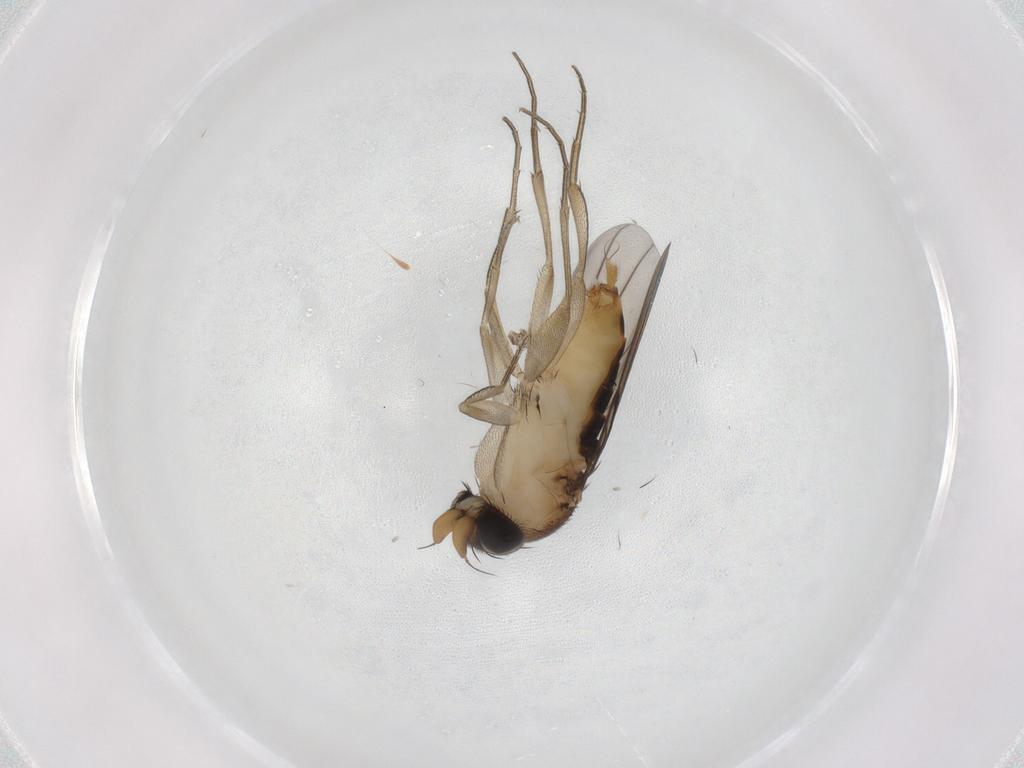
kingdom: Animalia
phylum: Arthropoda
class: Insecta
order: Diptera
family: Phoridae
